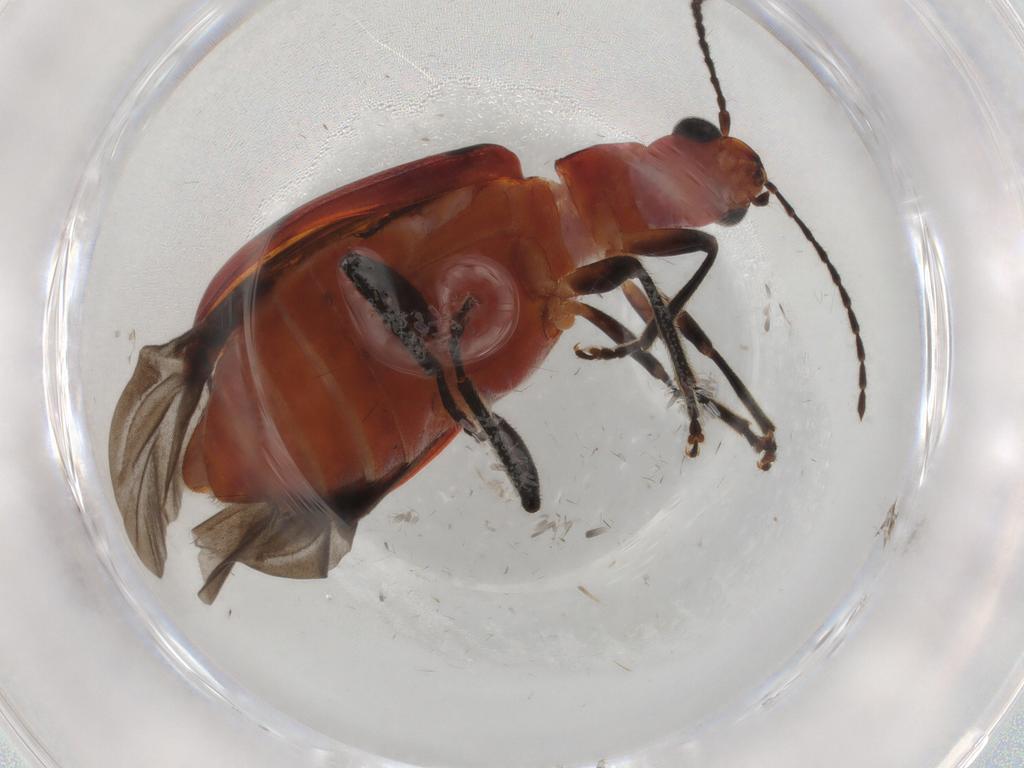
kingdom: Animalia
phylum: Arthropoda
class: Insecta
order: Coleoptera
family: Chrysomelidae
